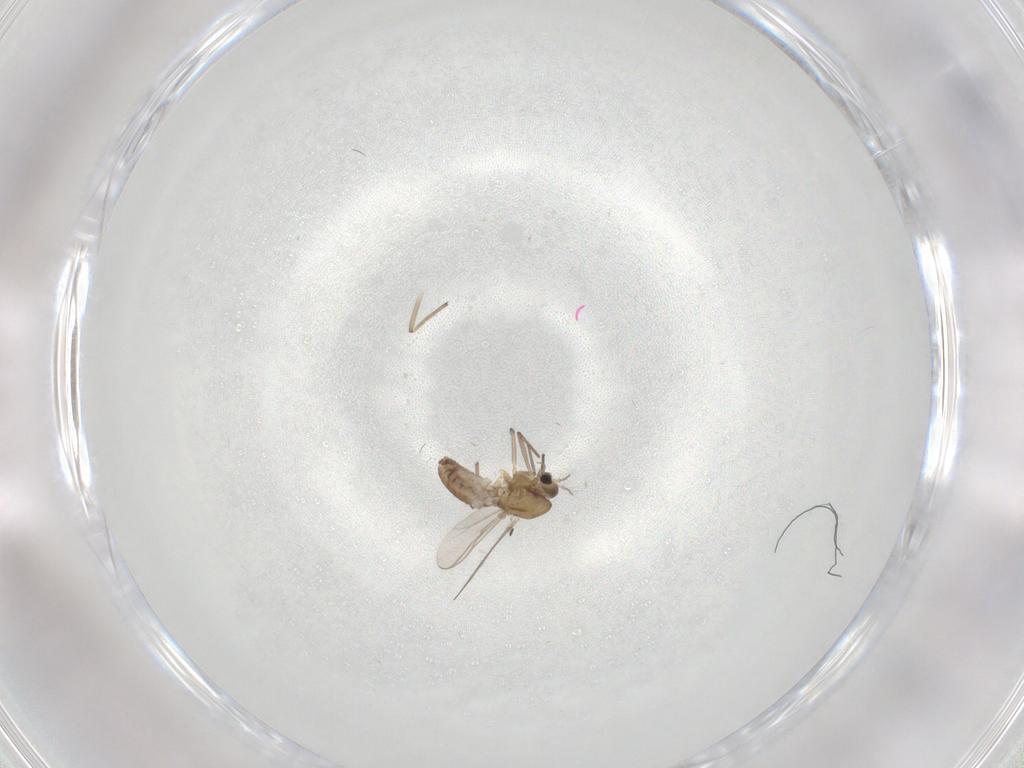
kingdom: Animalia
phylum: Arthropoda
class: Insecta
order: Diptera
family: Chironomidae
